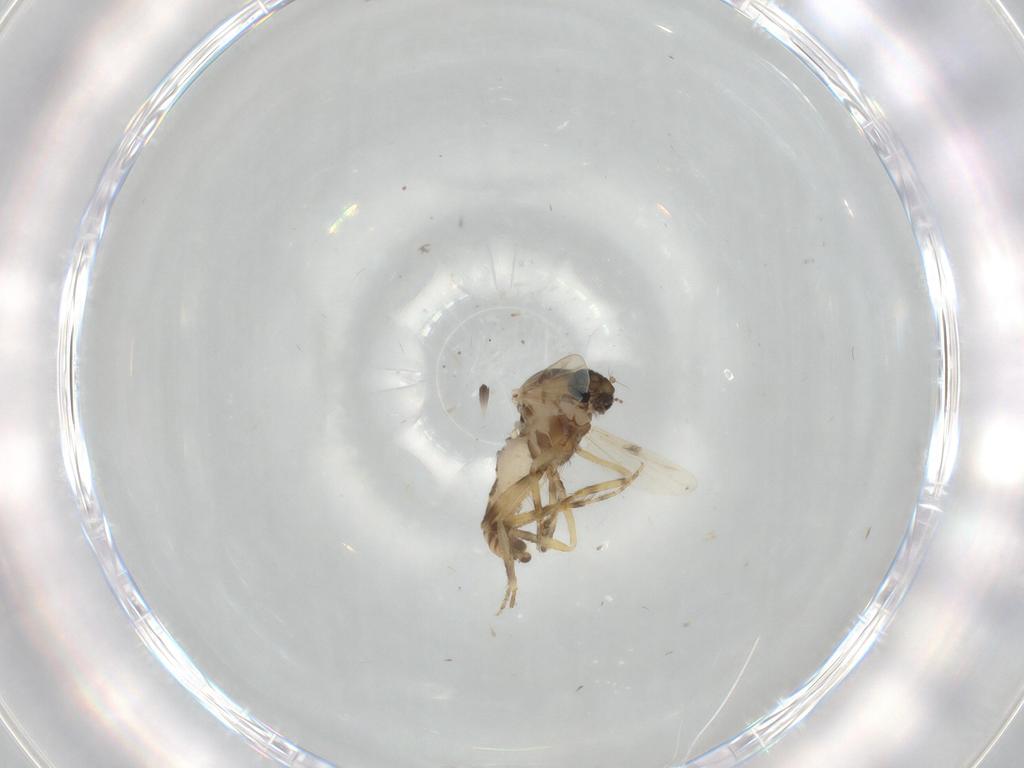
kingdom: Animalia
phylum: Arthropoda
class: Insecta
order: Diptera
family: Ceratopogonidae
